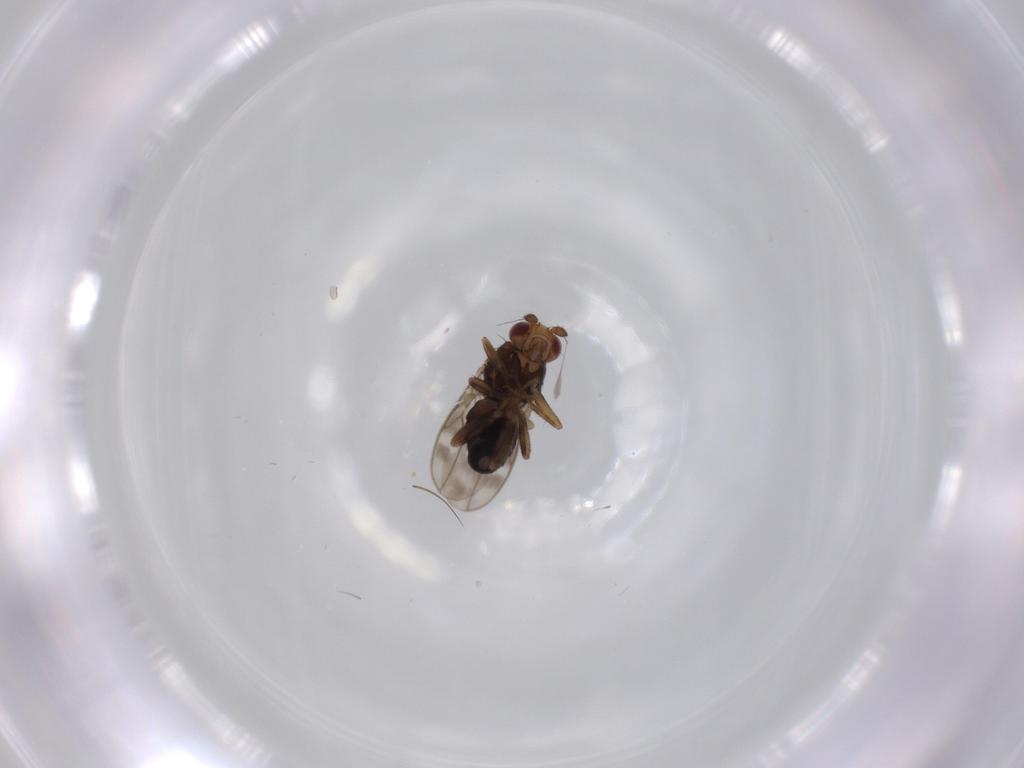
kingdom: Animalia
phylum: Arthropoda
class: Insecta
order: Diptera
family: Sphaeroceridae
